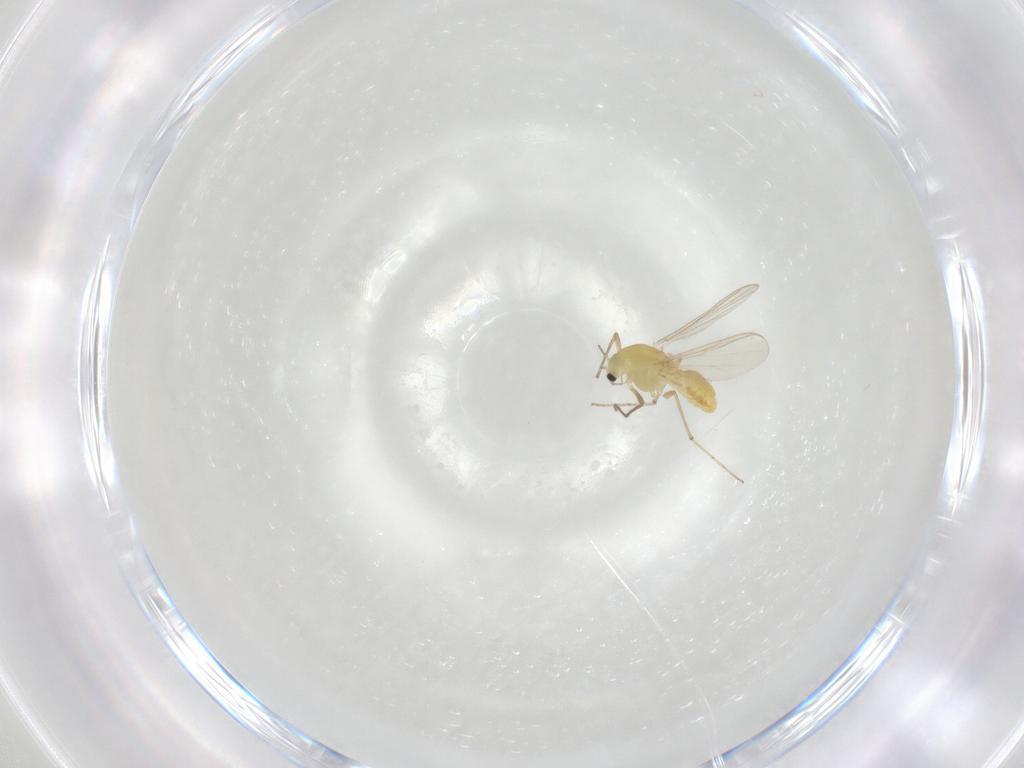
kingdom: Animalia
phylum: Arthropoda
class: Insecta
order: Diptera
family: Chironomidae
